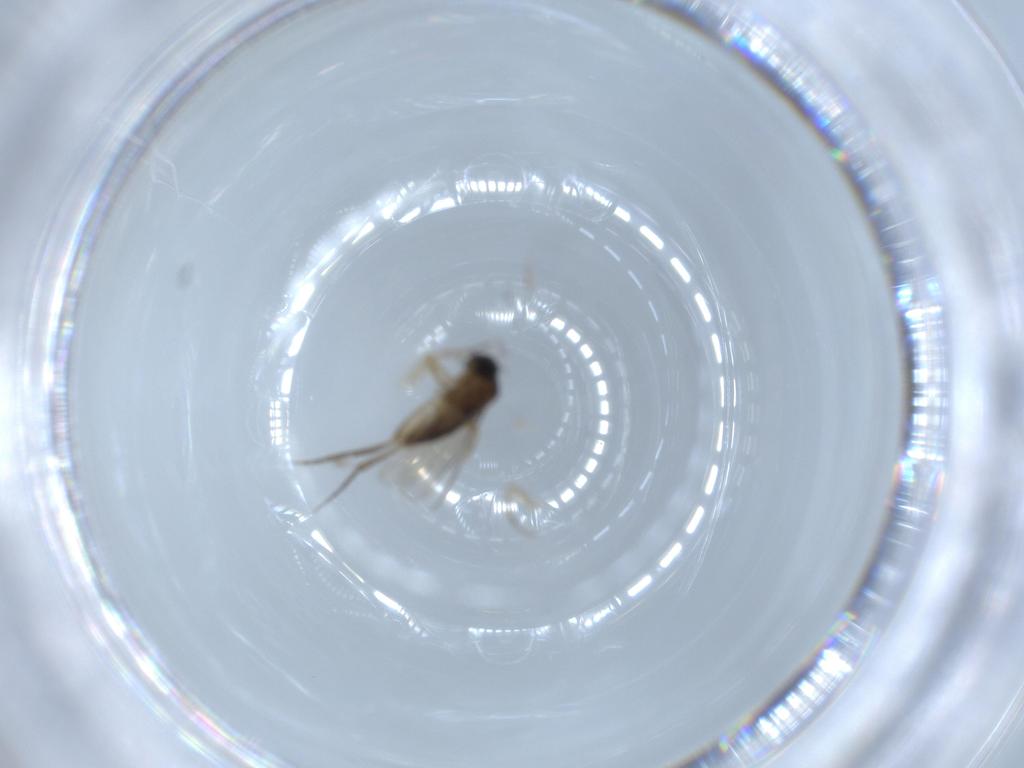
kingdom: Animalia
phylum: Arthropoda
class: Insecta
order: Diptera
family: Phoridae
